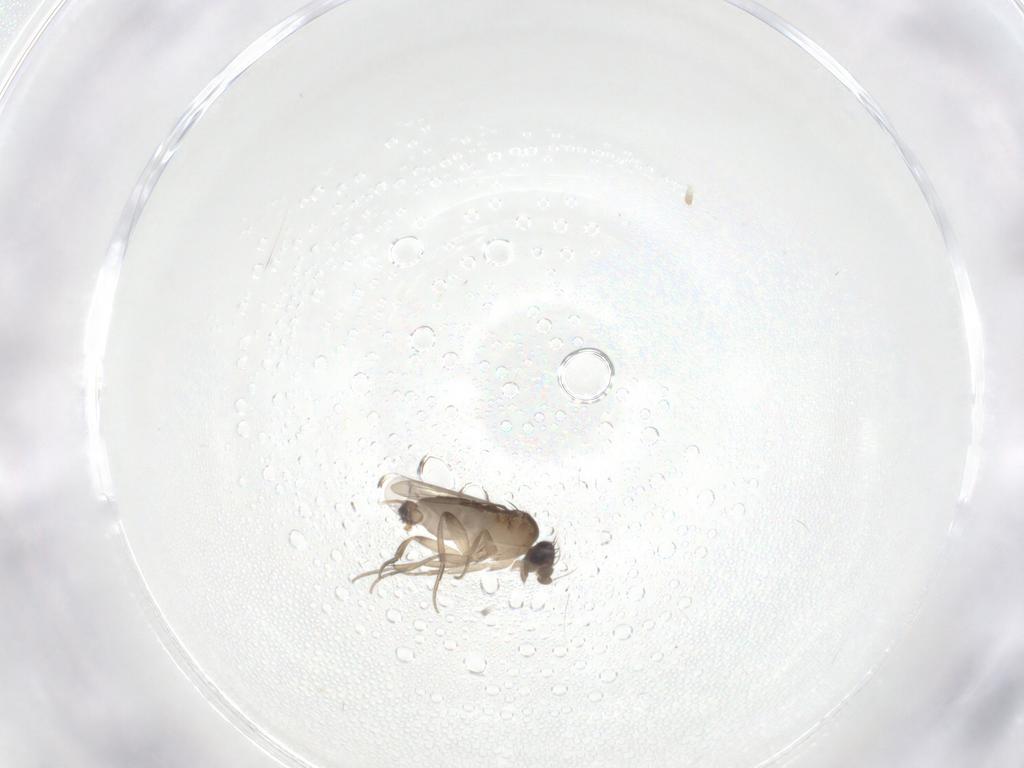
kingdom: Animalia
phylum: Arthropoda
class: Insecta
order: Diptera
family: Phoridae
